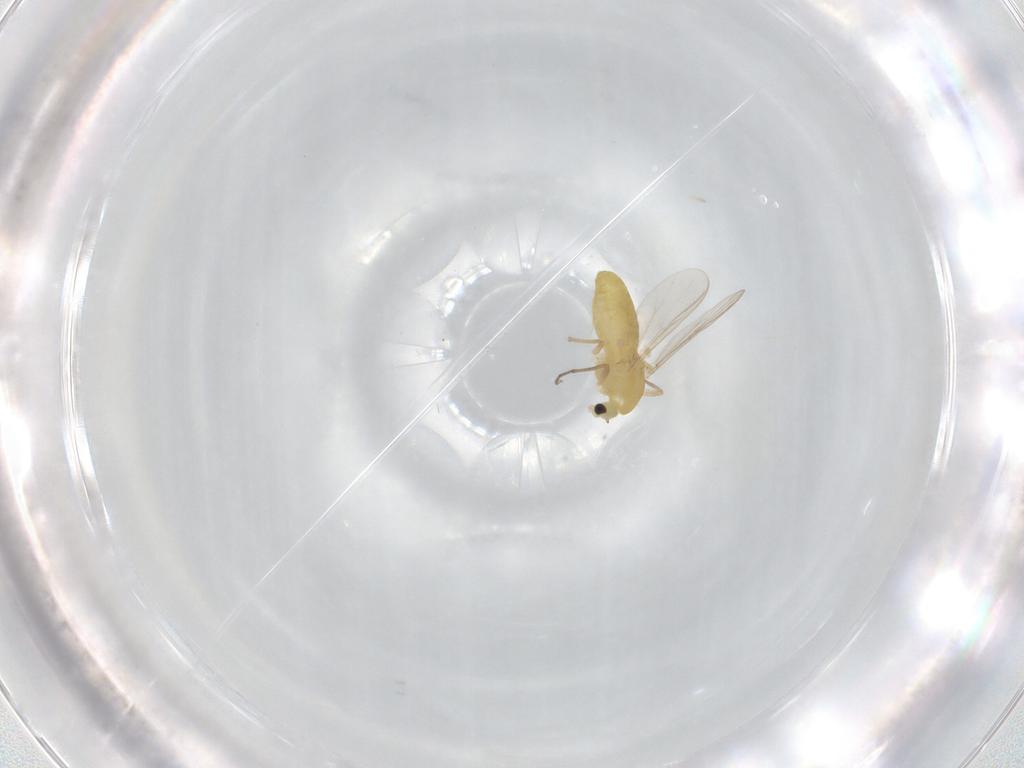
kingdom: Animalia
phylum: Arthropoda
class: Insecta
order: Diptera
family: Chironomidae
